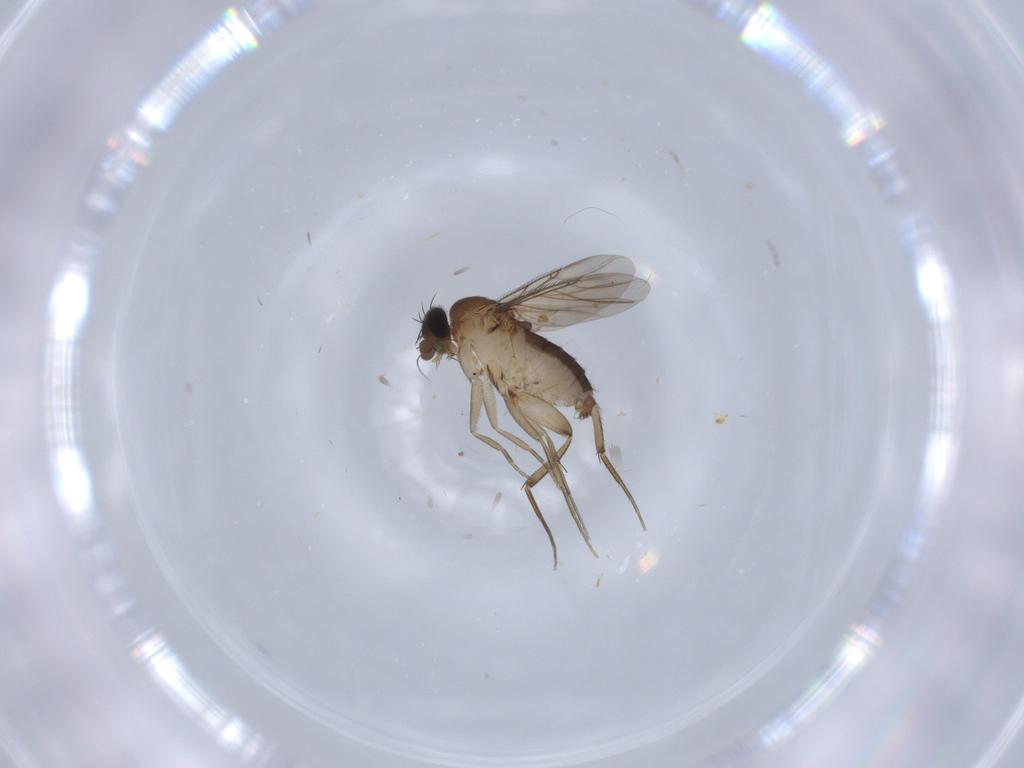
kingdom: Animalia
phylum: Arthropoda
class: Insecta
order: Diptera
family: Phoridae
